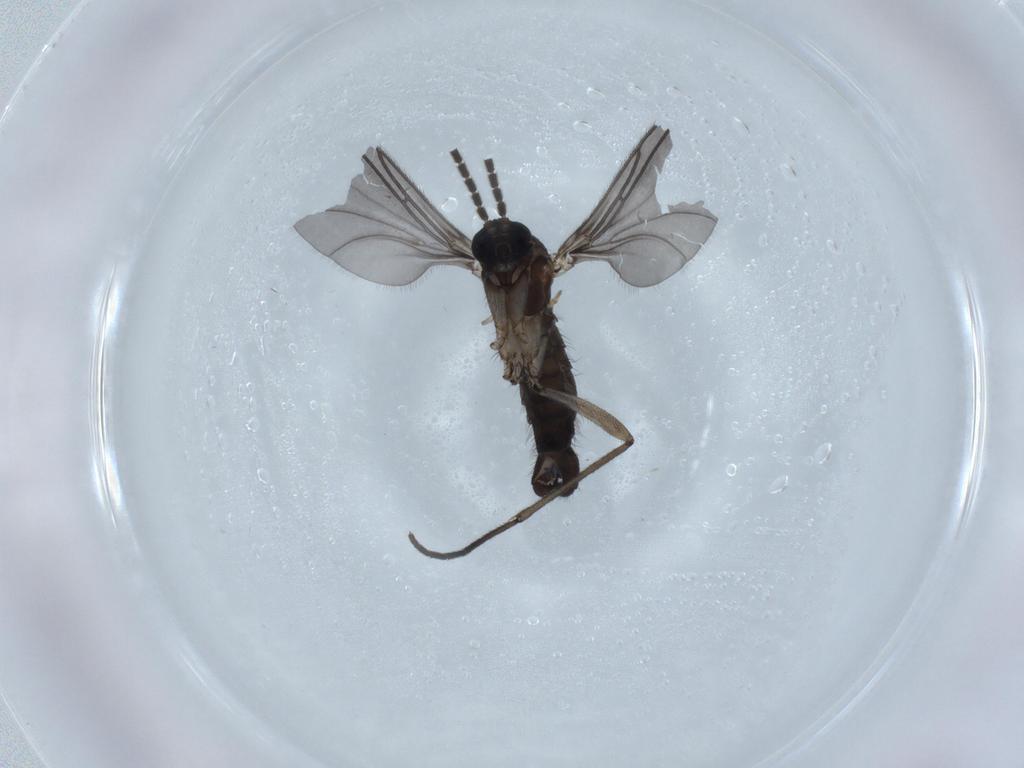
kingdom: Animalia
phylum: Arthropoda
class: Insecta
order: Diptera
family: Sciaridae
